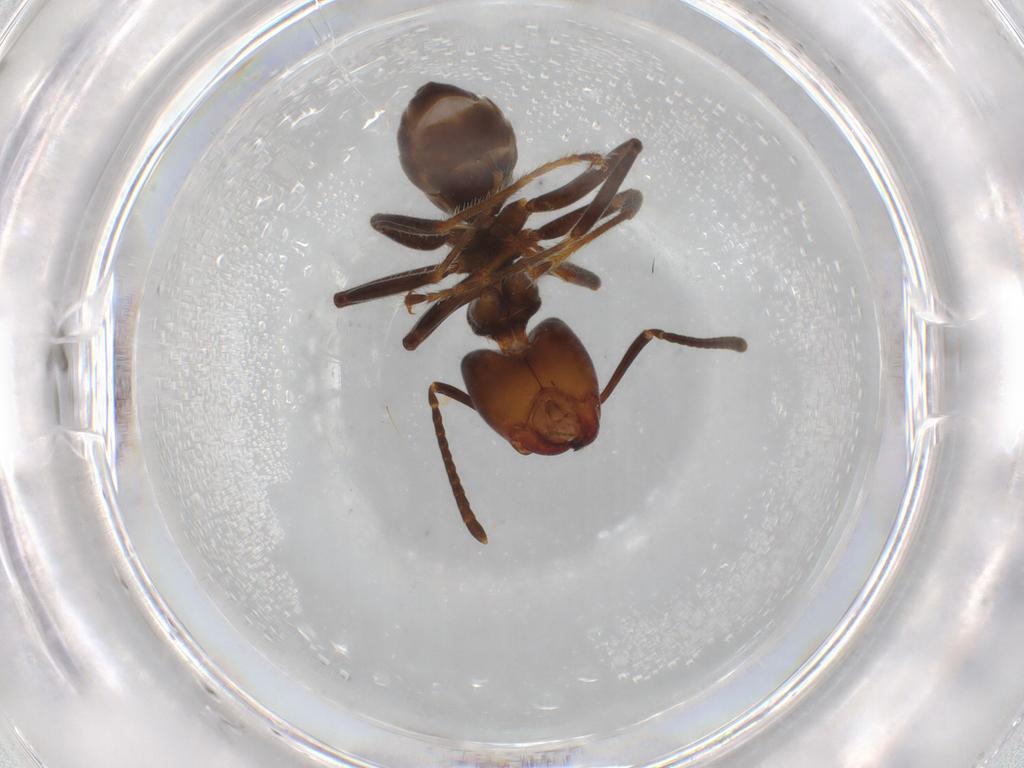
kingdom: Animalia
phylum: Arthropoda
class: Insecta
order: Hymenoptera
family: Formicidae
